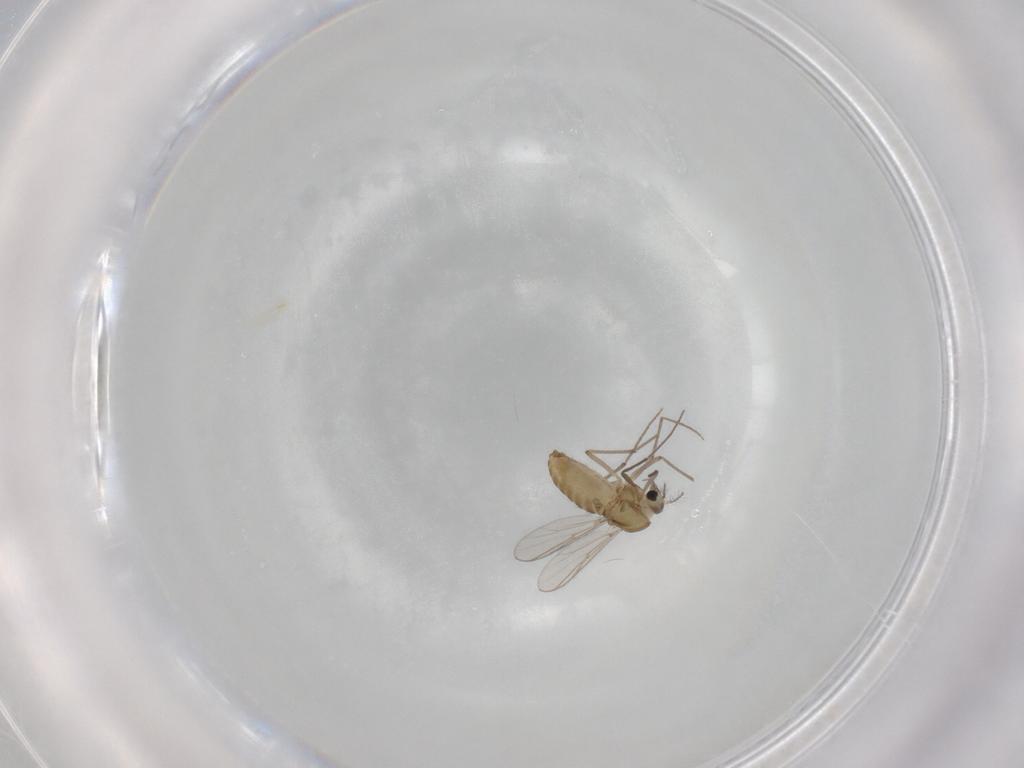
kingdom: Animalia
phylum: Arthropoda
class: Insecta
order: Diptera
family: Chironomidae
